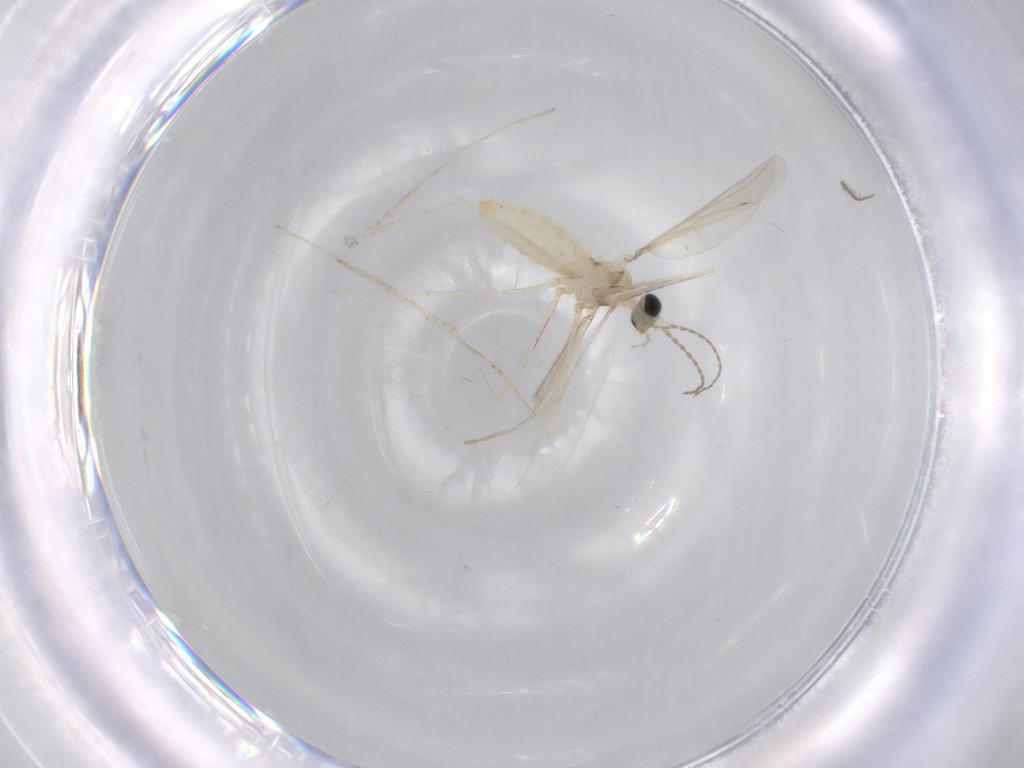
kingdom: Animalia
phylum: Arthropoda
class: Insecta
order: Diptera
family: Cecidomyiidae
